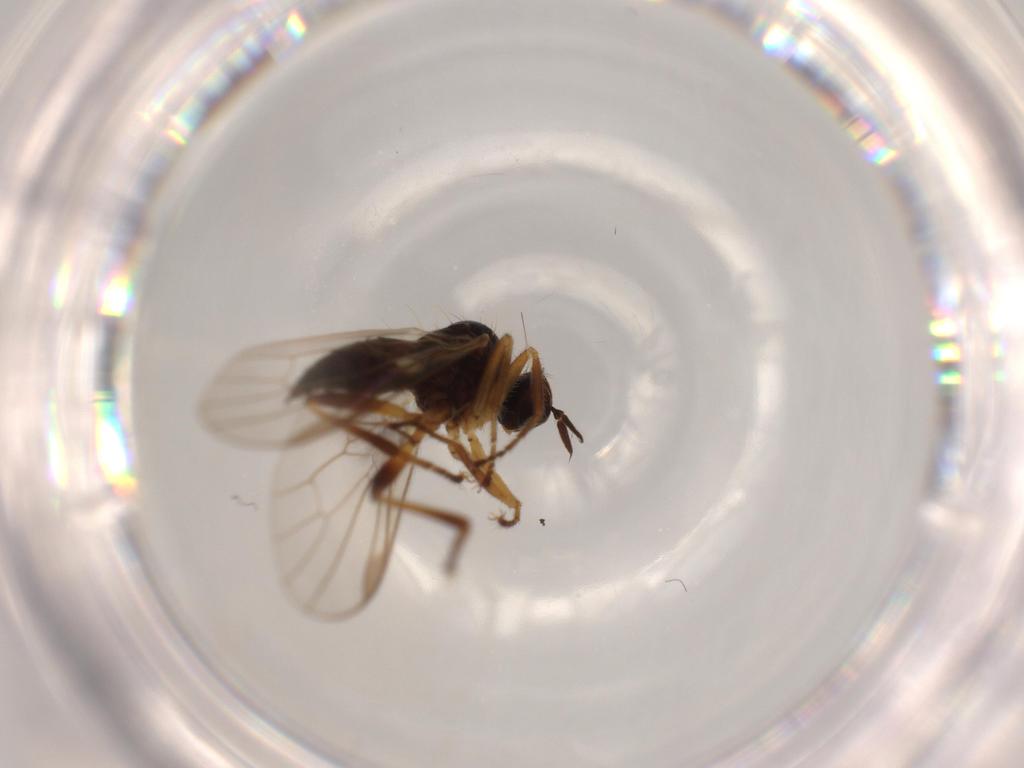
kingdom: Animalia
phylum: Arthropoda
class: Insecta
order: Diptera
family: Hybotidae
